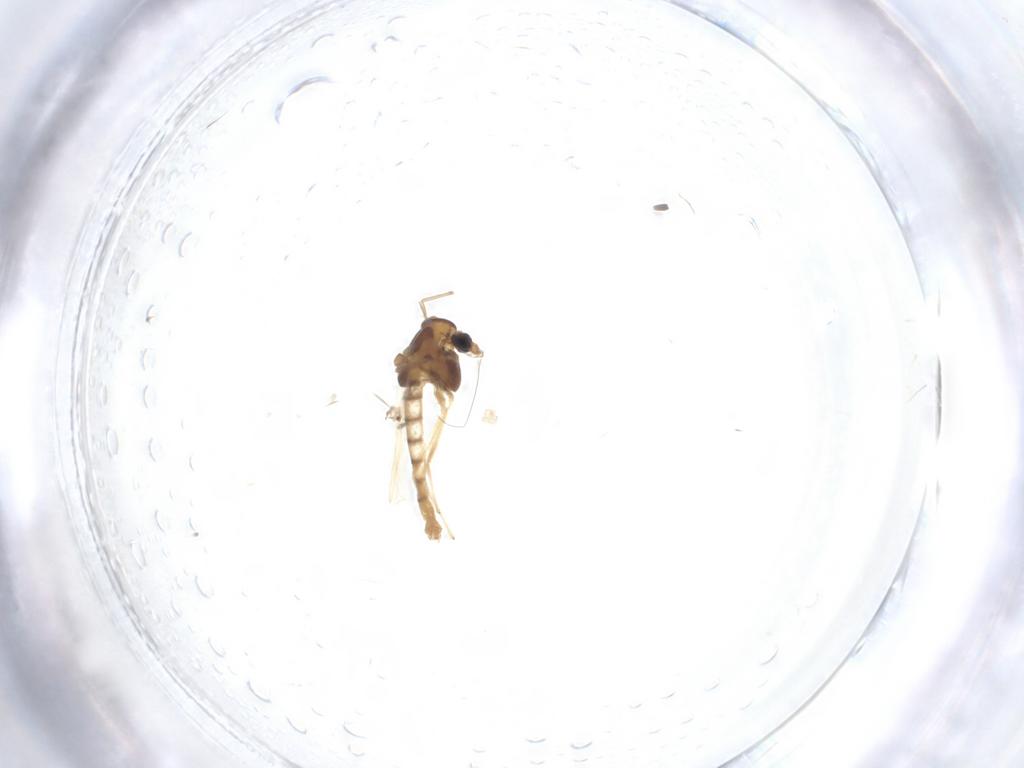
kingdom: Animalia
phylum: Arthropoda
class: Insecta
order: Diptera
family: Chironomidae
